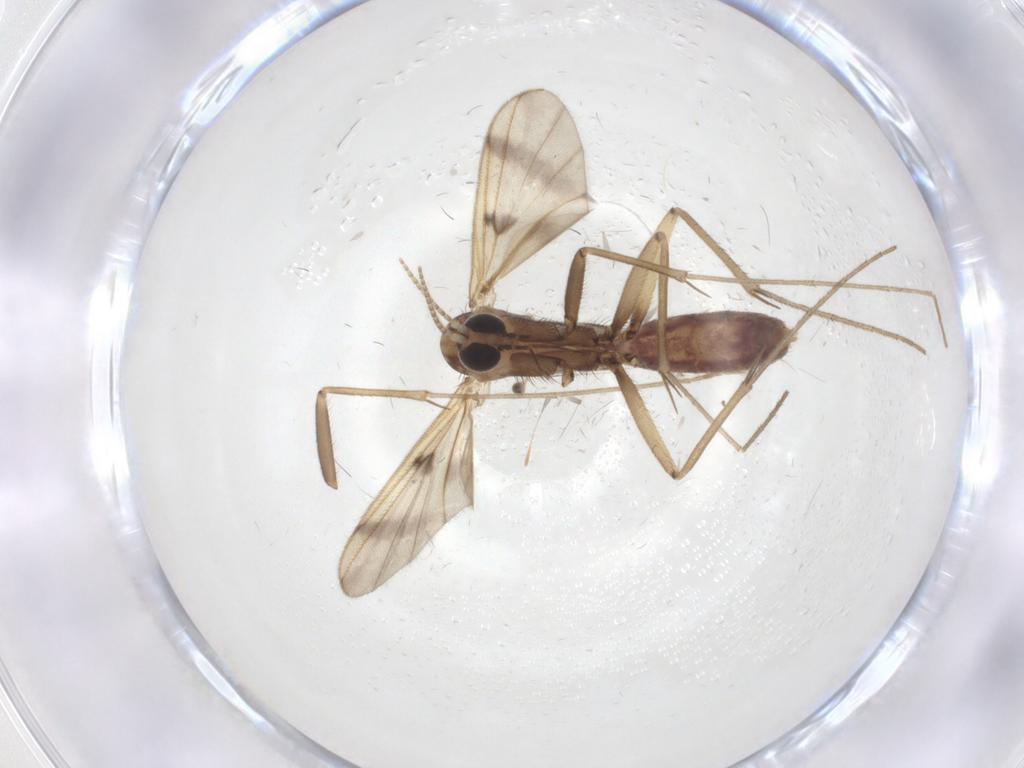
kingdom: Animalia
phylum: Arthropoda
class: Insecta
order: Diptera
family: Mycetophilidae
